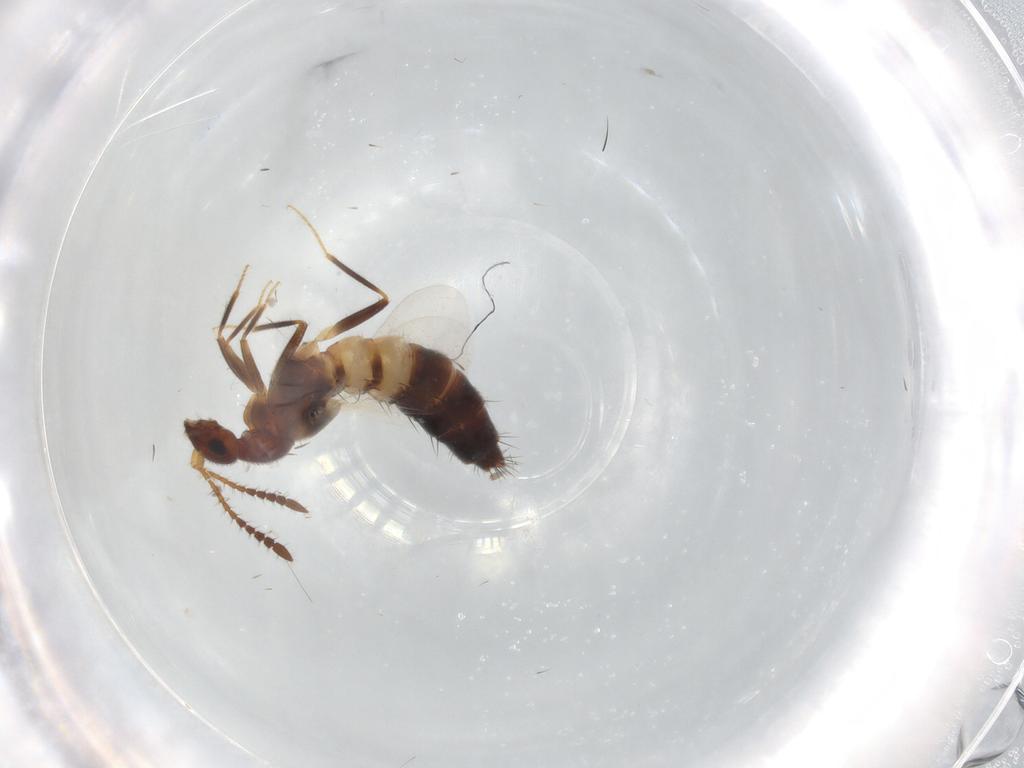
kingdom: Animalia
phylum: Arthropoda
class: Insecta
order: Coleoptera
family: Staphylinidae
